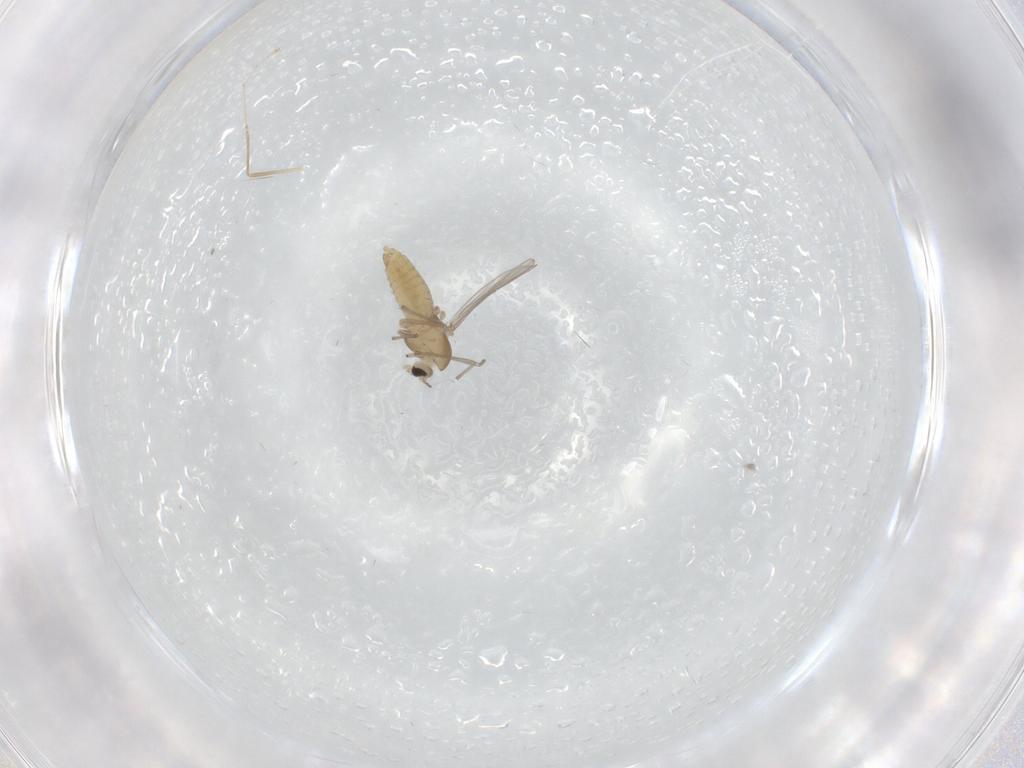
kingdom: Animalia
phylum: Arthropoda
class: Insecta
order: Diptera
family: Chironomidae
